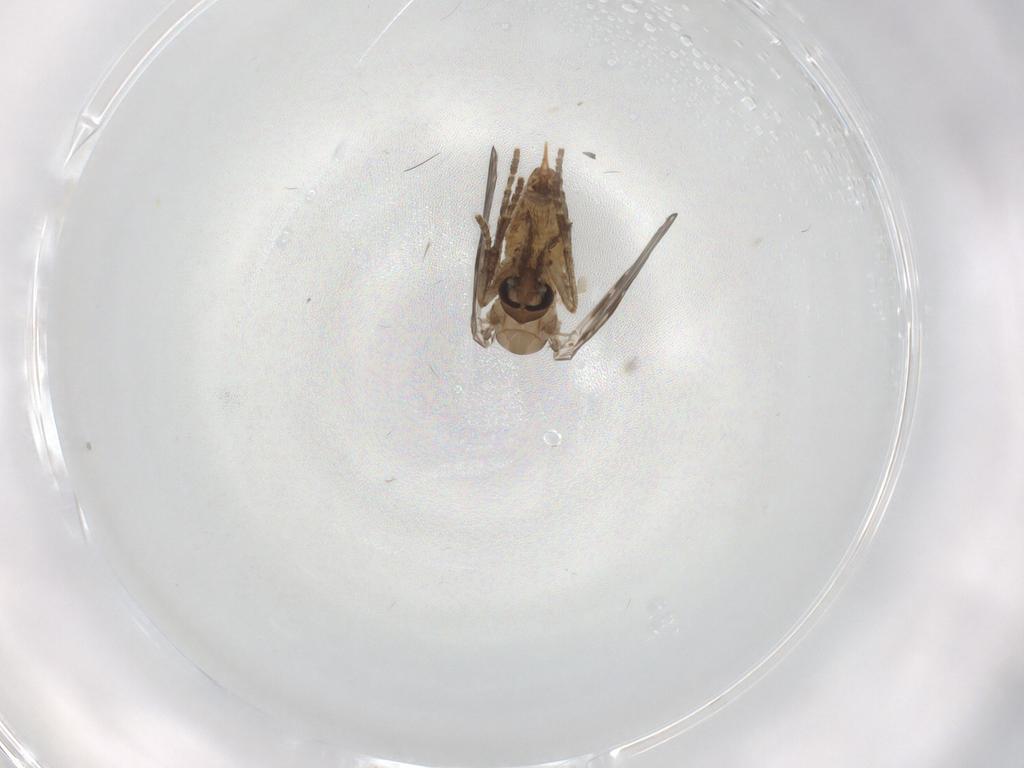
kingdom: Animalia
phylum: Arthropoda
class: Insecta
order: Diptera
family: Psychodidae
